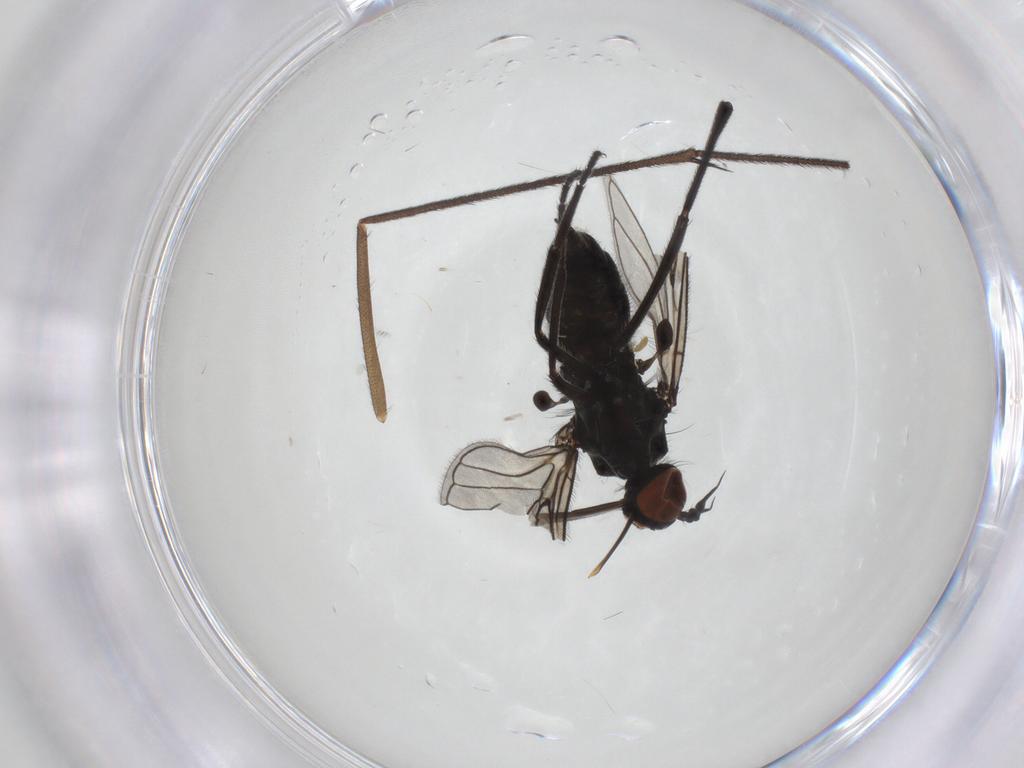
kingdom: Animalia
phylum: Arthropoda
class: Insecta
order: Diptera
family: Empididae
